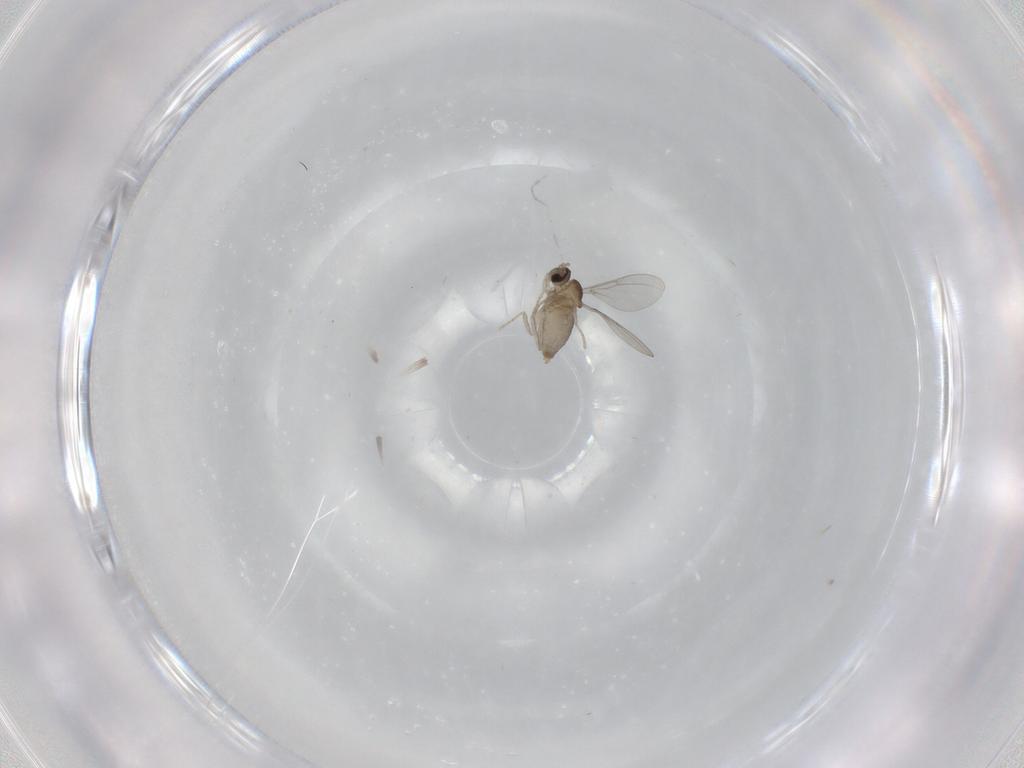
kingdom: Animalia
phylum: Arthropoda
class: Insecta
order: Diptera
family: Cecidomyiidae
